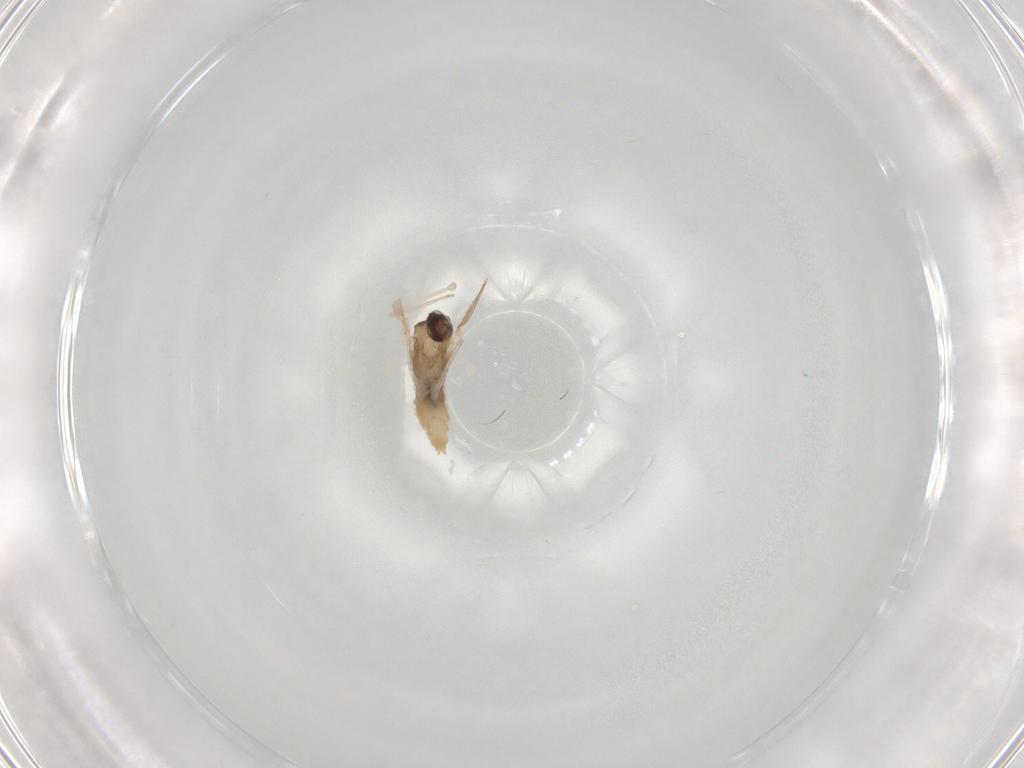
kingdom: Animalia
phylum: Arthropoda
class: Insecta
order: Diptera
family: Cecidomyiidae
